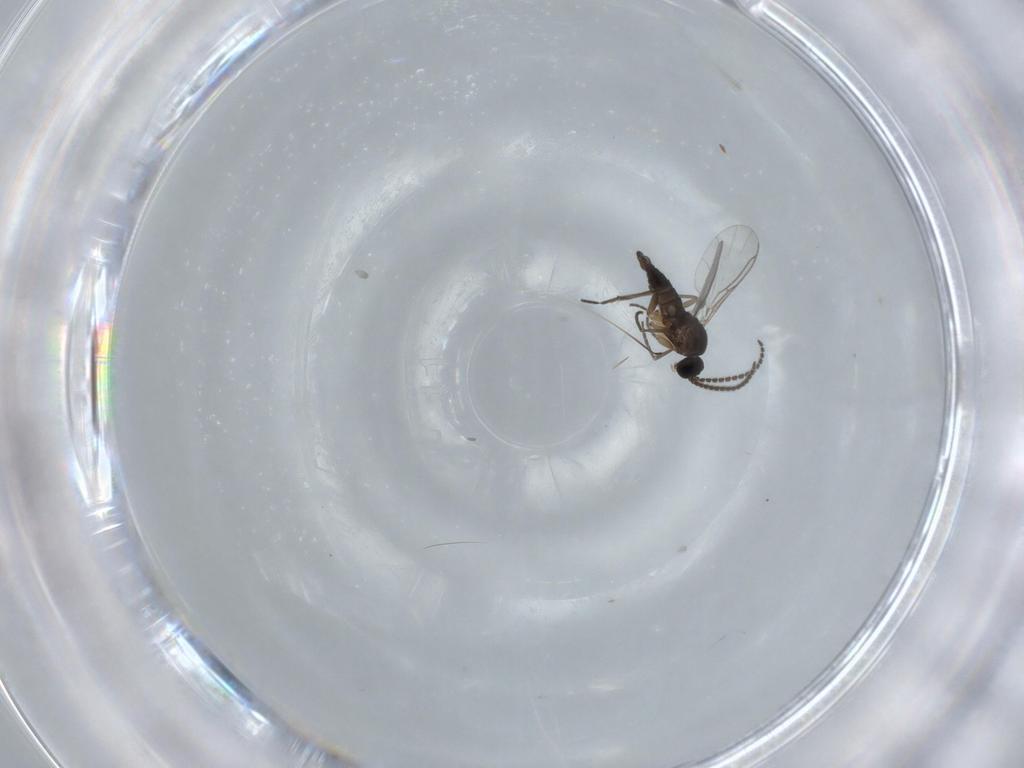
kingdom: Animalia
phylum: Arthropoda
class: Insecta
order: Diptera
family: Sciaridae
